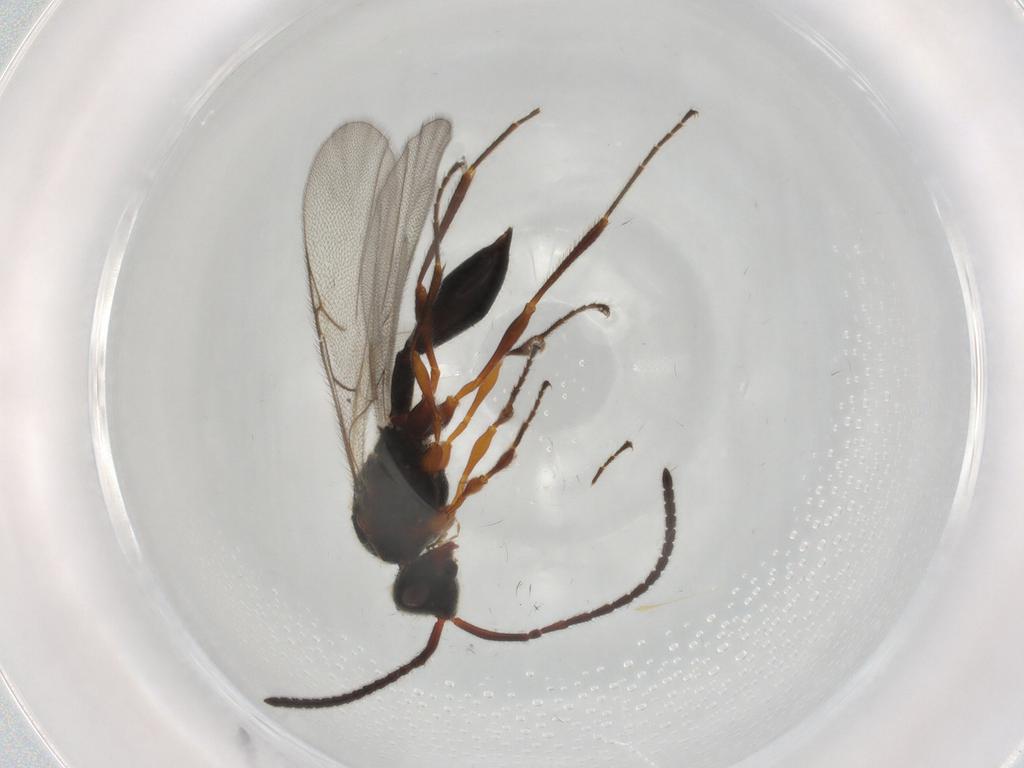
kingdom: Animalia
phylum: Arthropoda
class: Insecta
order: Hymenoptera
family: Diapriidae
